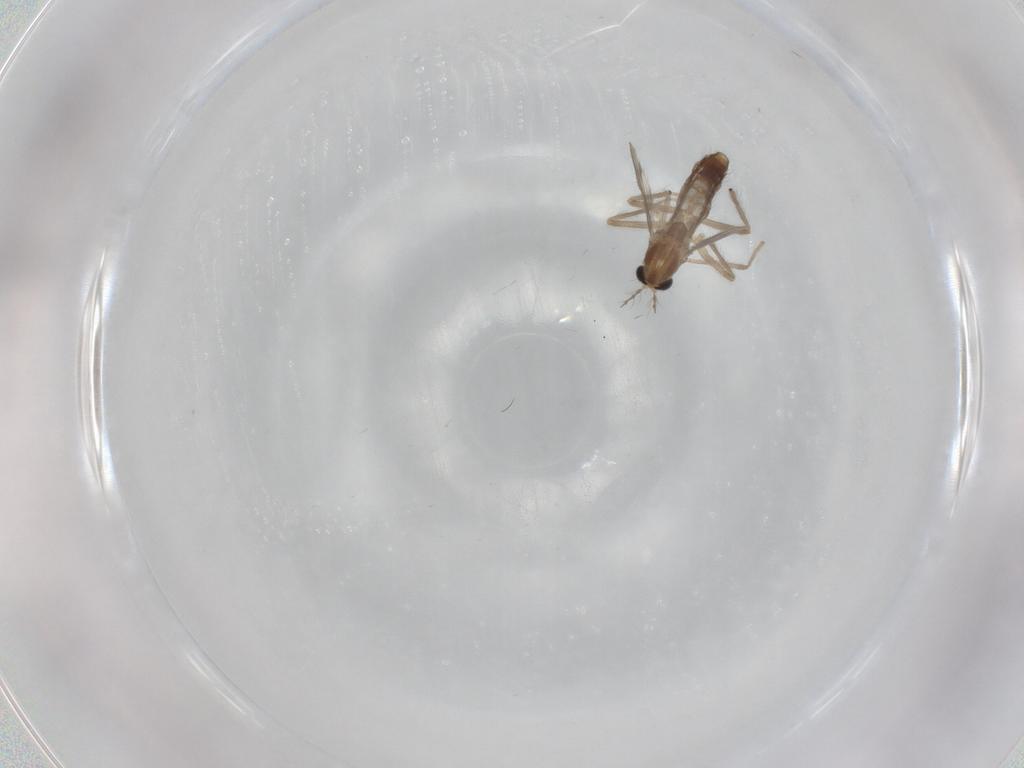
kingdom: Animalia
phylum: Arthropoda
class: Insecta
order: Diptera
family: Chironomidae
